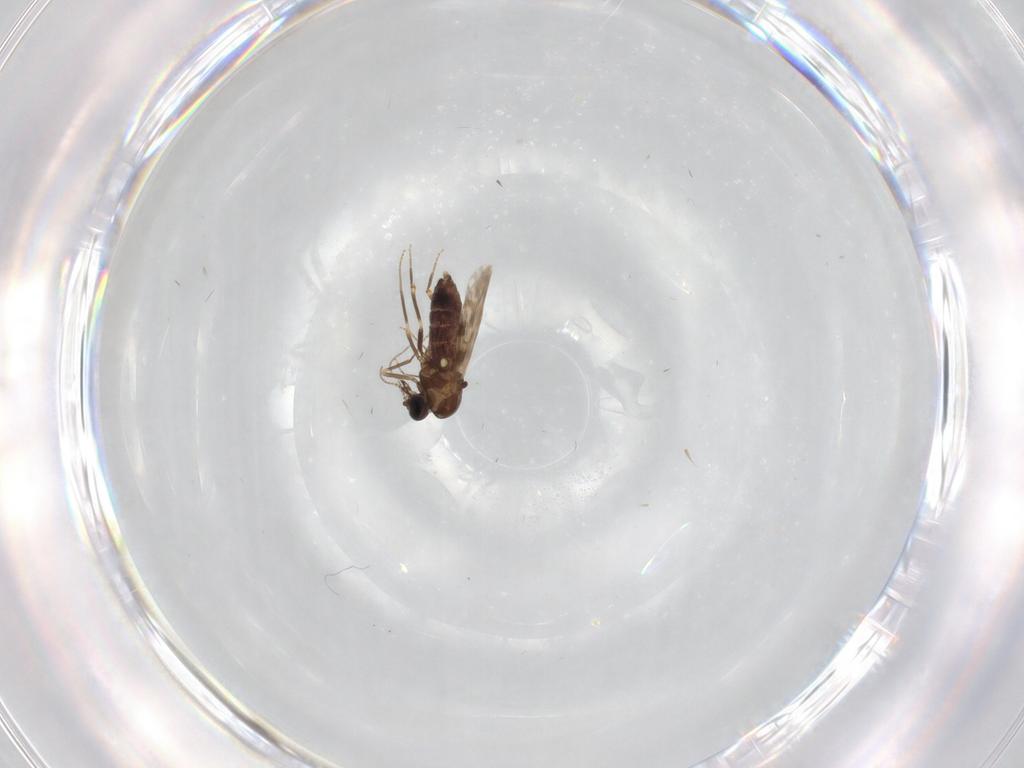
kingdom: Animalia
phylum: Arthropoda
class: Insecta
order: Diptera
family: Ceratopogonidae
